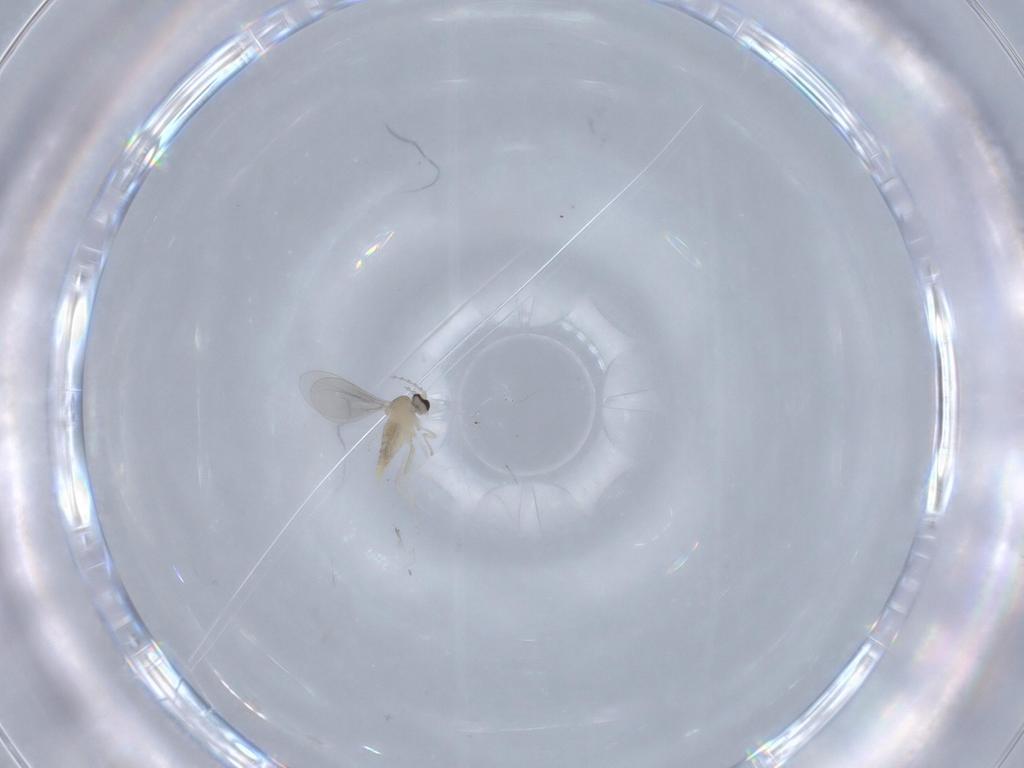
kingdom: Animalia
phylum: Arthropoda
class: Insecta
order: Diptera
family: Cecidomyiidae
